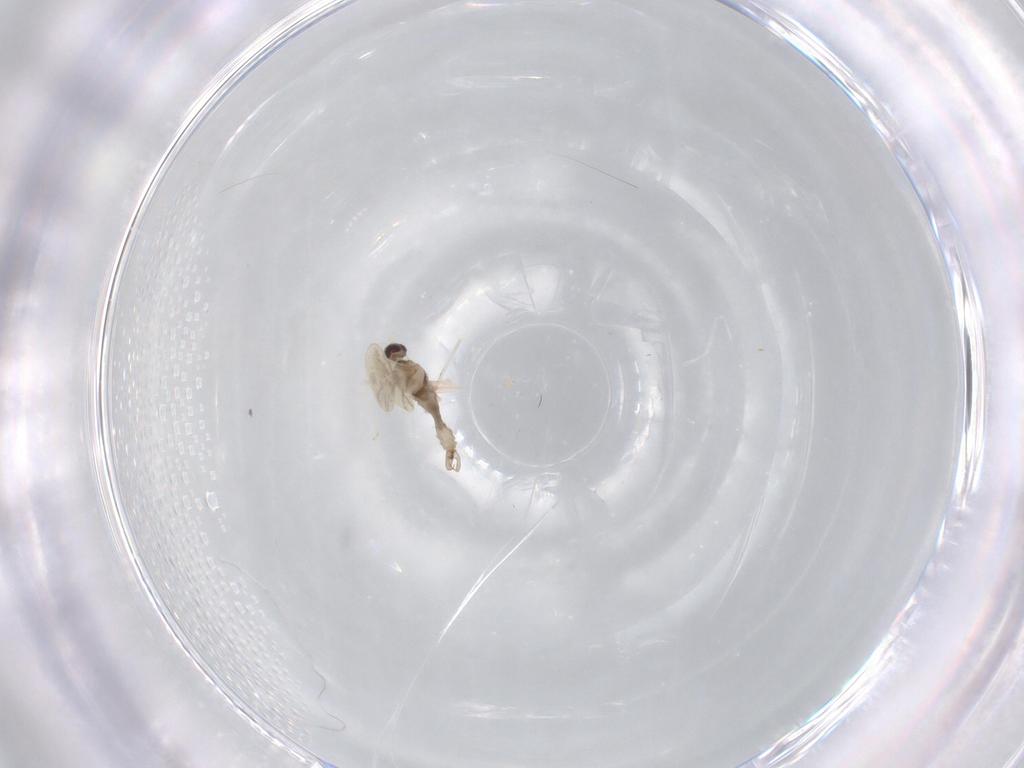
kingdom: Animalia
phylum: Arthropoda
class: Insecta
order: Diptera
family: Cecidomyiidae
